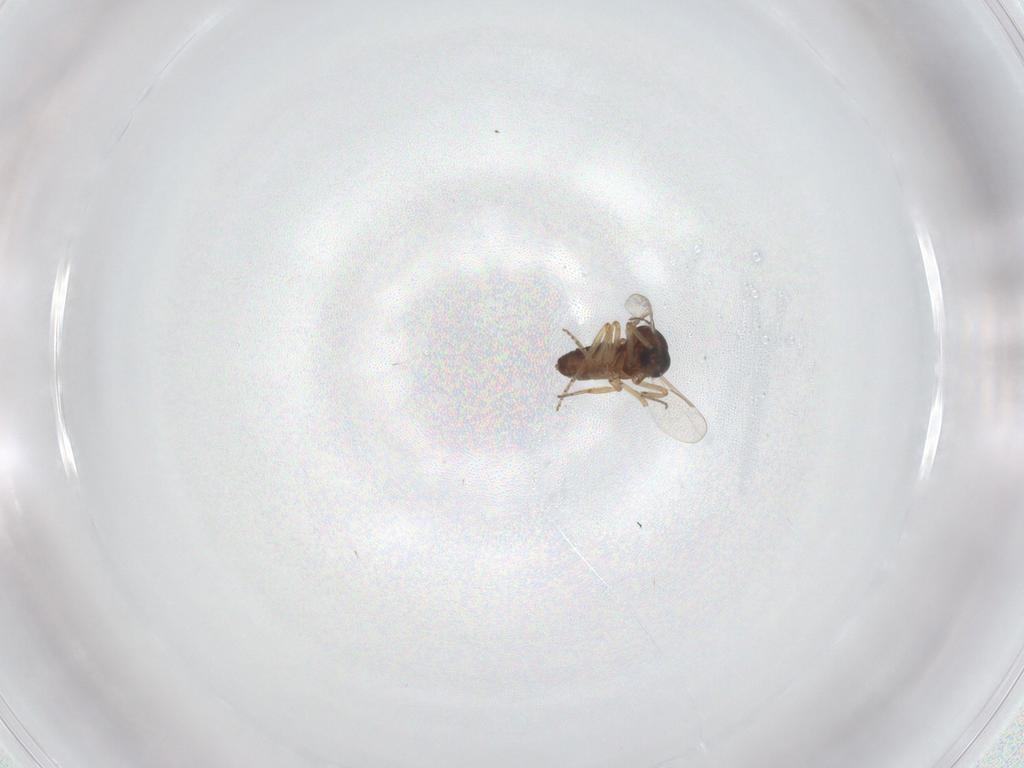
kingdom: Animalia
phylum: Arthropoda
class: Insecta
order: Diptera
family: Ceratopogonidae
